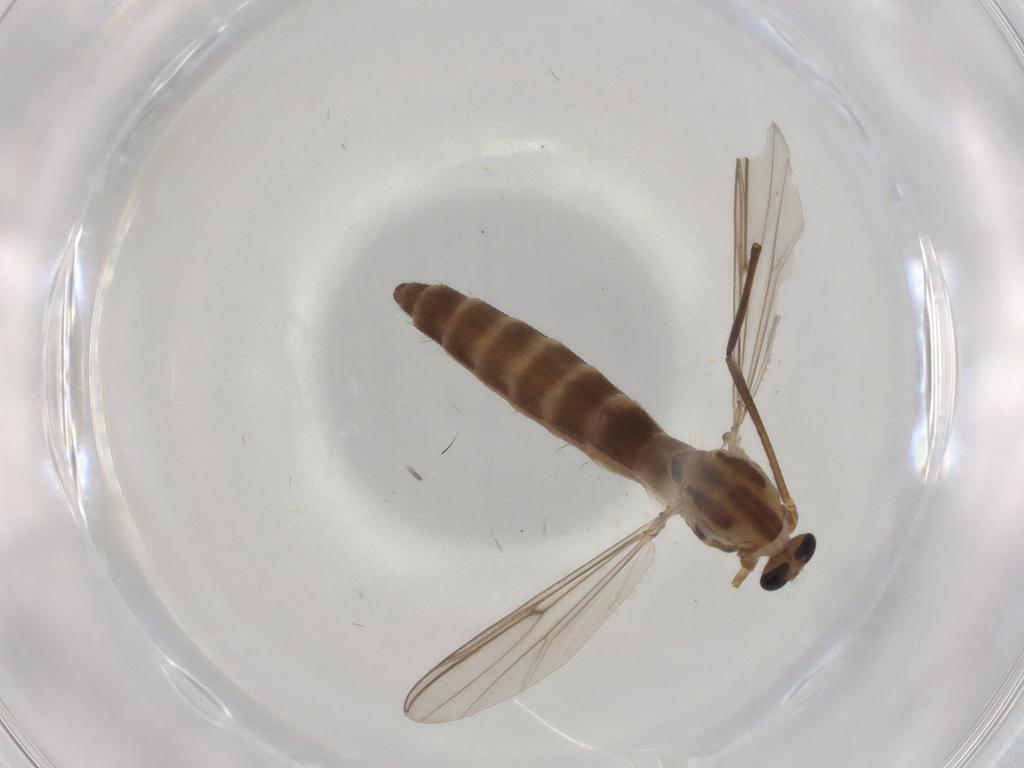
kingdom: Animalia
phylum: Arthropoda
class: Insecta
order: Diptera
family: Chironomidae
